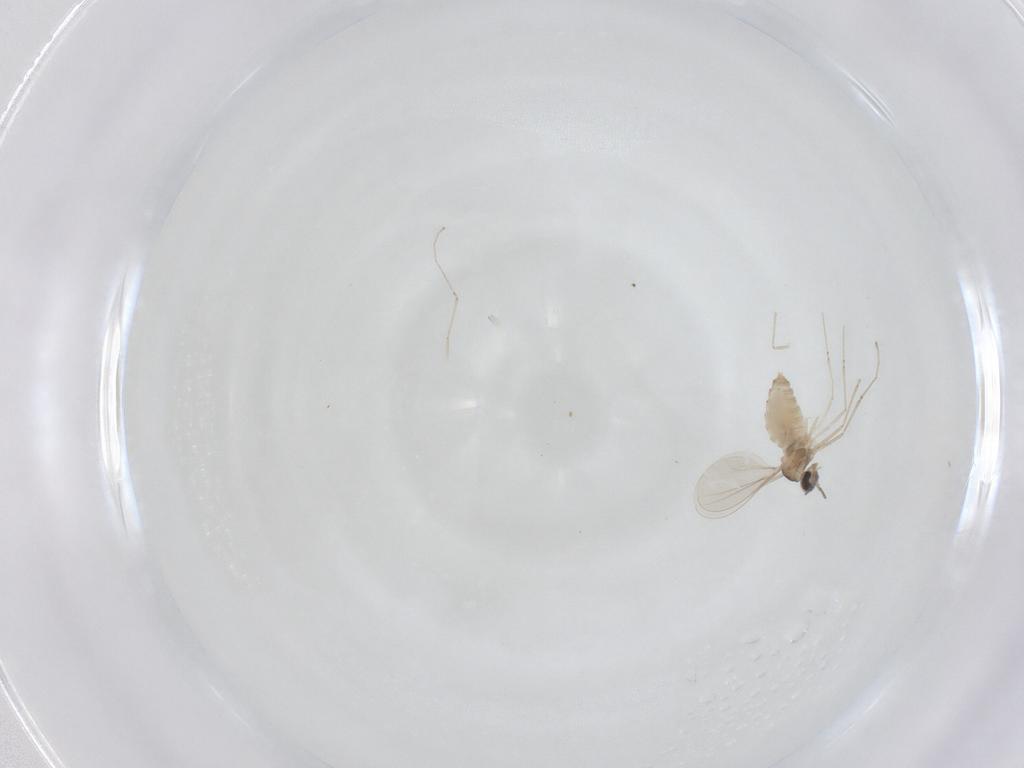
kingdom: Animalia
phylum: Arthropoda
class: Insecta
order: Diptera
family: Cecidomyiidae
